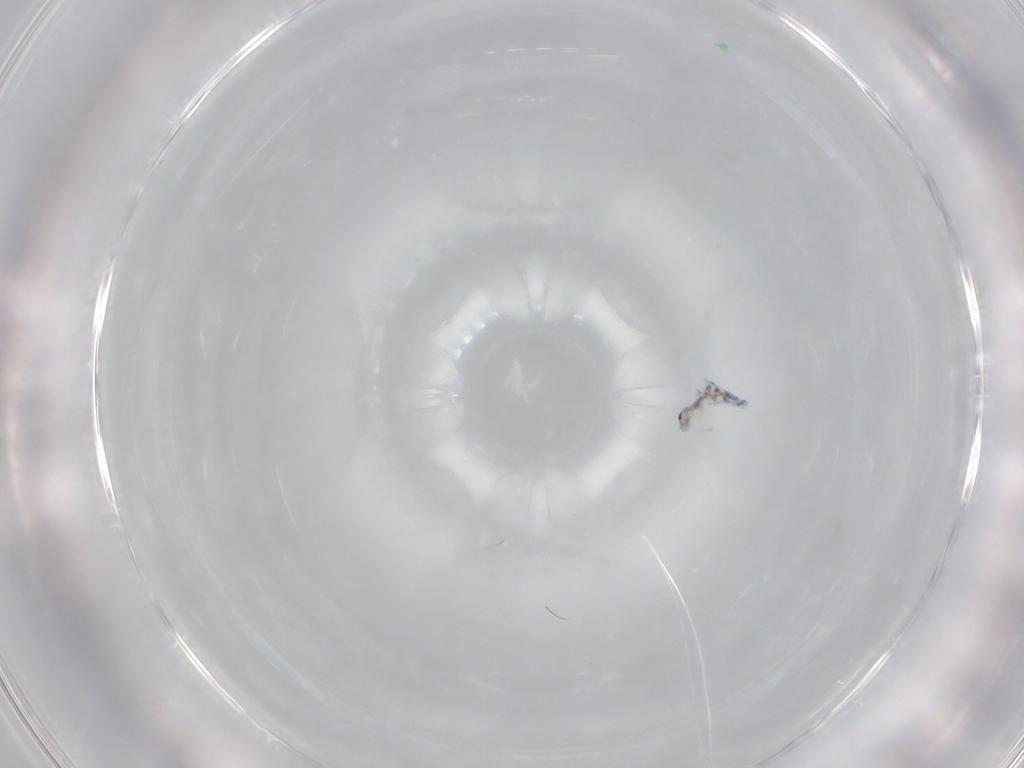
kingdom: Animalia
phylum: Arthropoda
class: Collembola
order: Entomobryomorpha
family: Entomobryidae
